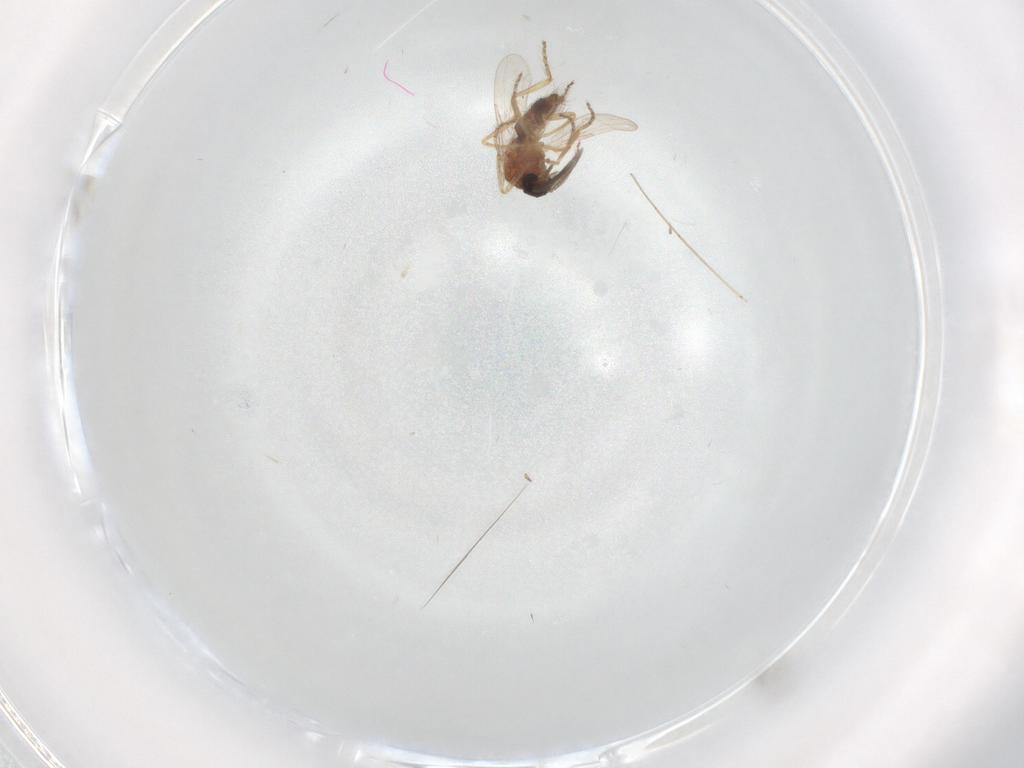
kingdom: Animalia
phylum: Arthropoda
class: Insecta
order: Diptera
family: Ceratopogonidae
